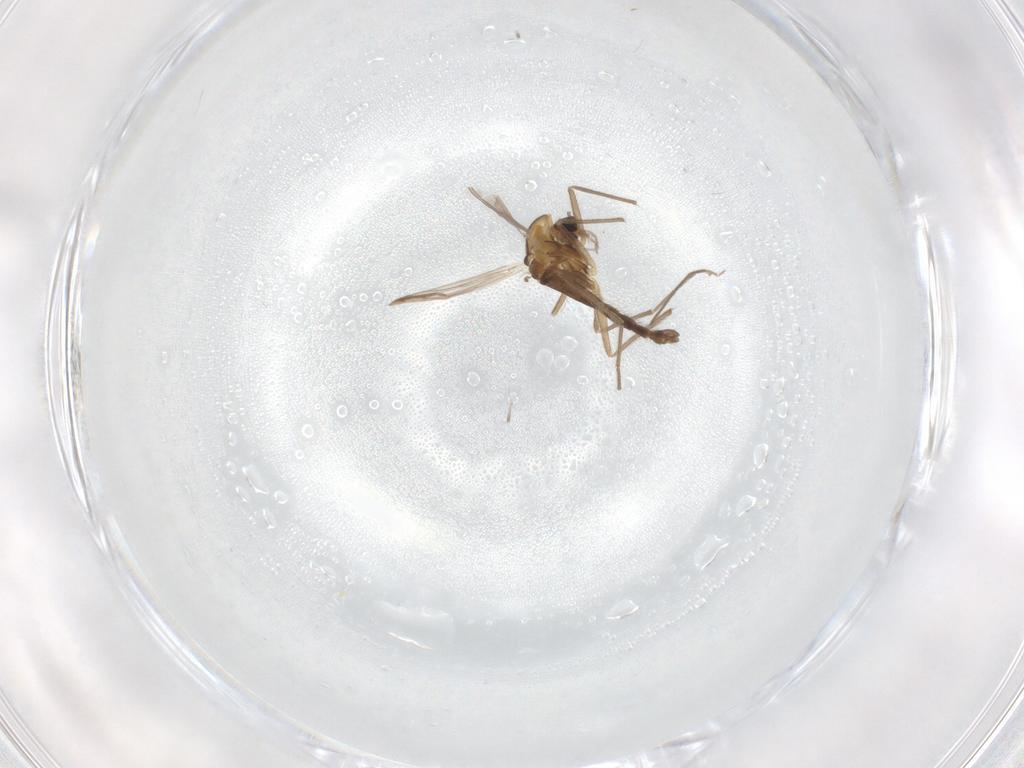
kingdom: Animalia
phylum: Arthropoda
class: Insecta
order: Diptera
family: Chironomidae
